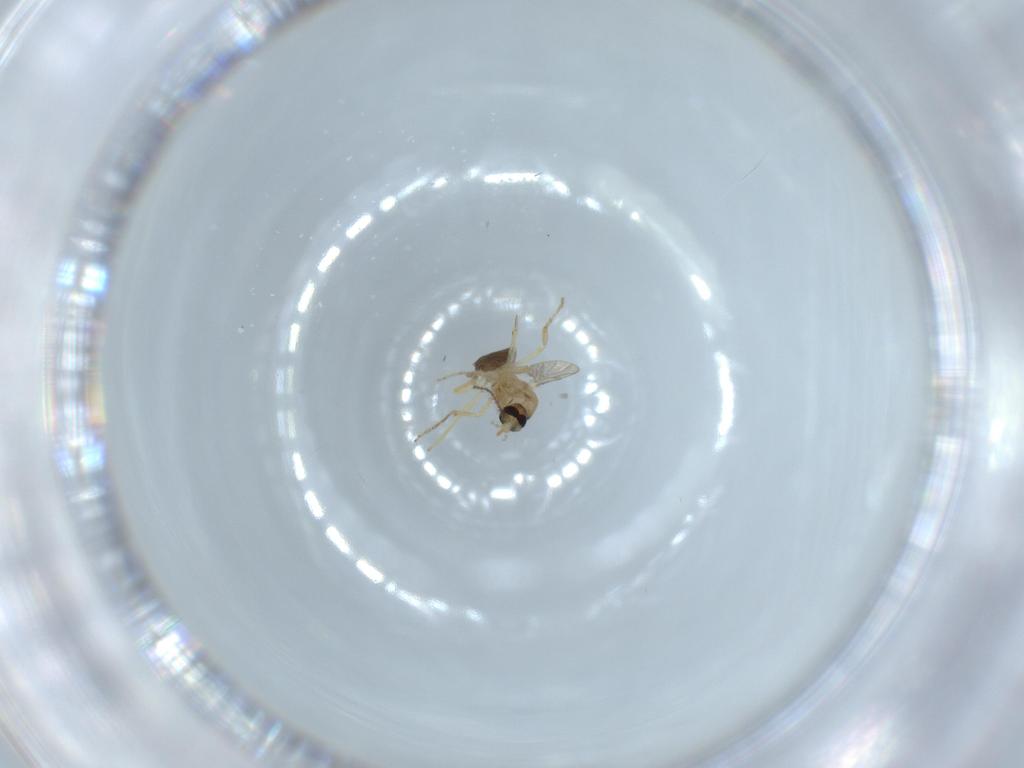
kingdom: Animalia
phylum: Arthropoda
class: Insecta
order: Diptera
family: Ceratopogonidae
